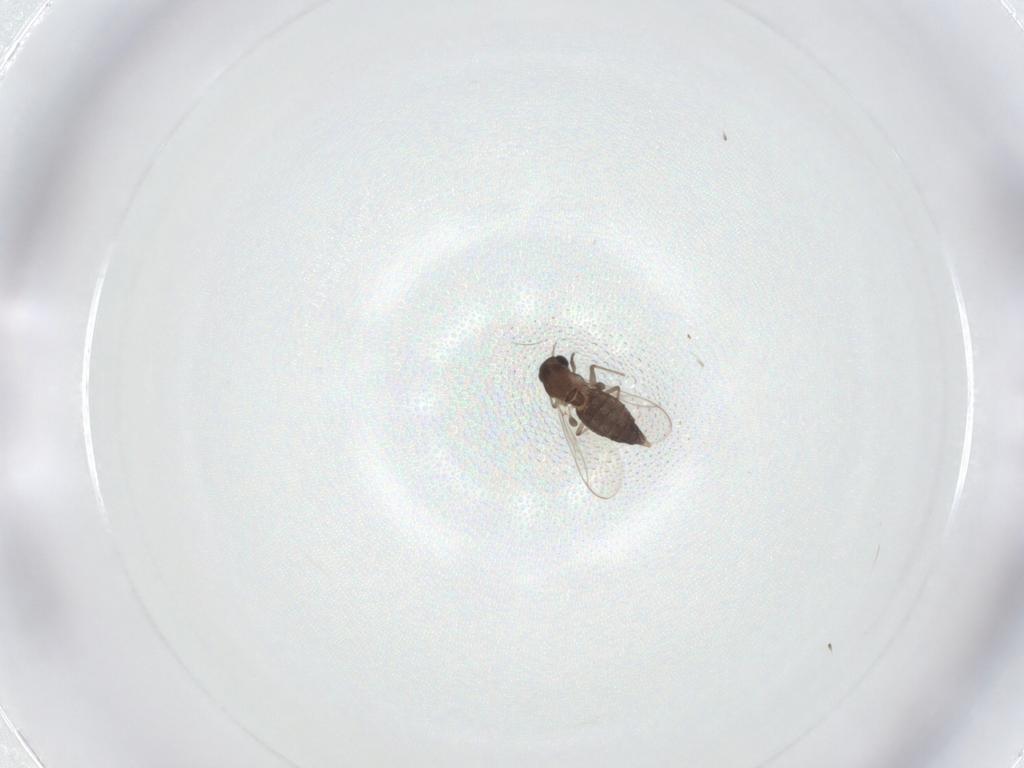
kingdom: Animalia
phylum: Arthropoda
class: Insecta
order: Diptera
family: Chironomidae
